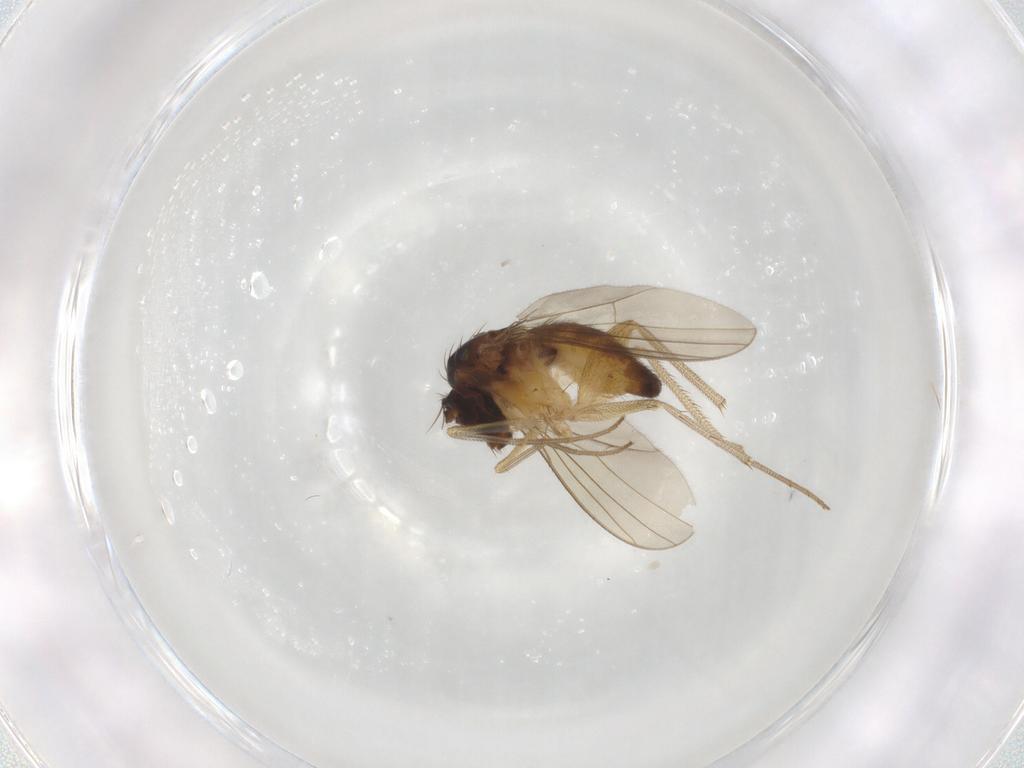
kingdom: Animalia
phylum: Arthropoda
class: Insecta
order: Diptera
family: Dolichopodidae
